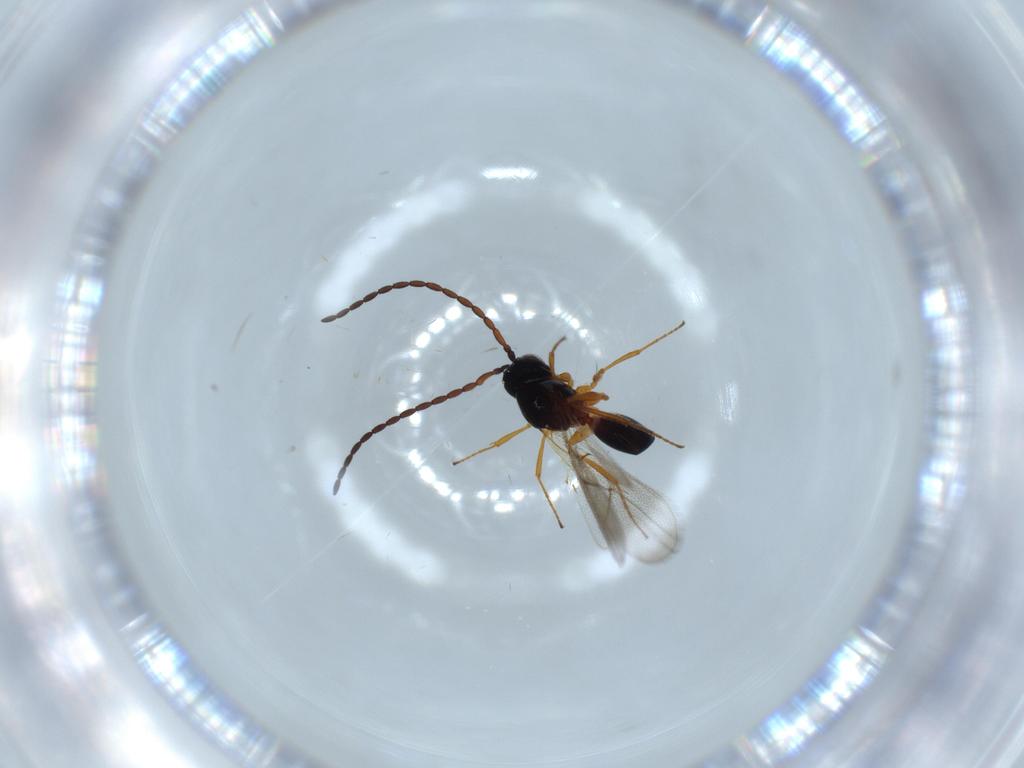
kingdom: Animalia
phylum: Arthropoda
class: Insecta
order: Hymenoptera
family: Figitidae
